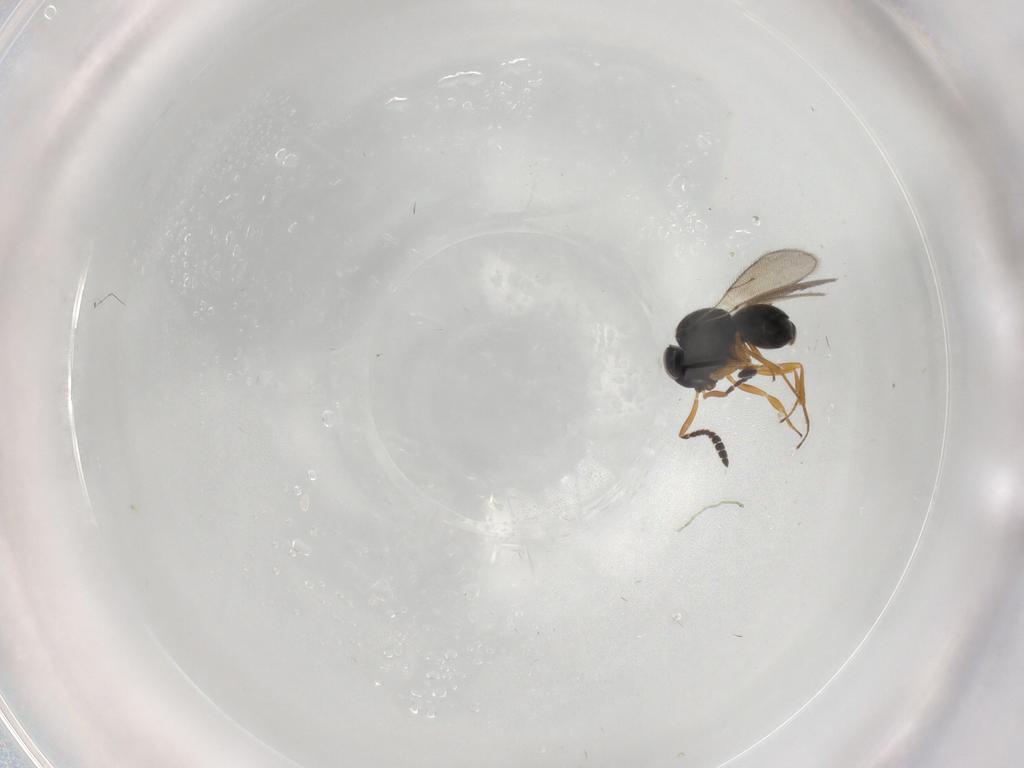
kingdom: Animalia
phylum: Arthropoda
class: Insecta
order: Hymenoptera
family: Scelionidae
